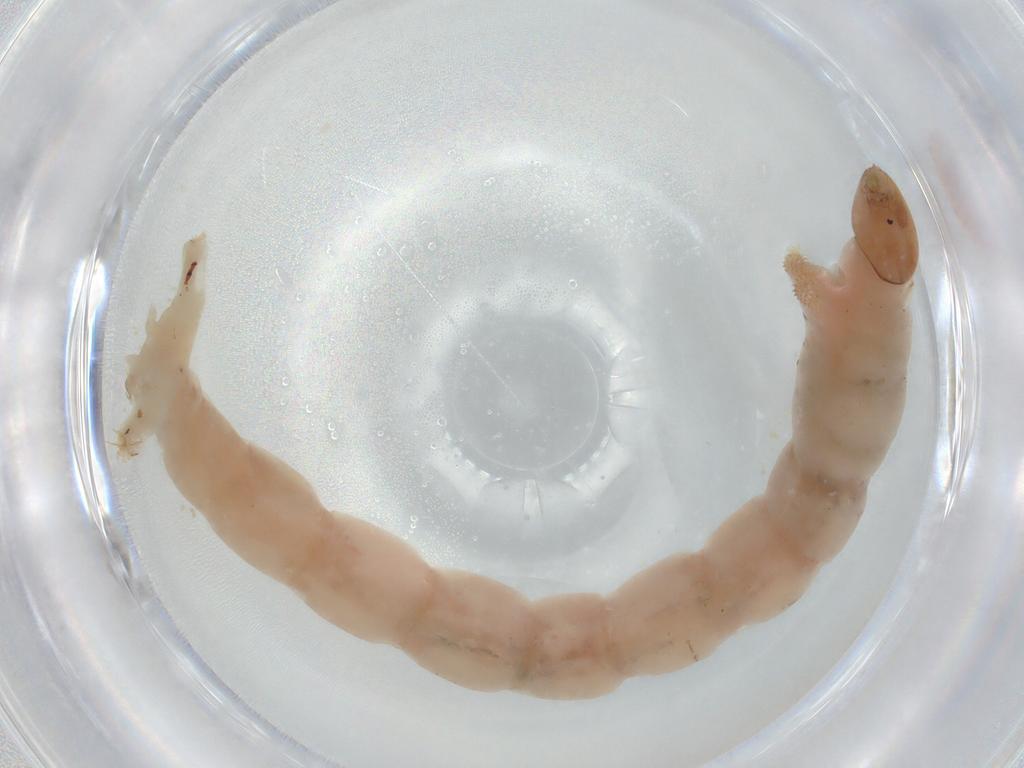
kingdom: Animalia
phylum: Arthropoda
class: Insecta
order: Diptera
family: Chironomidae
